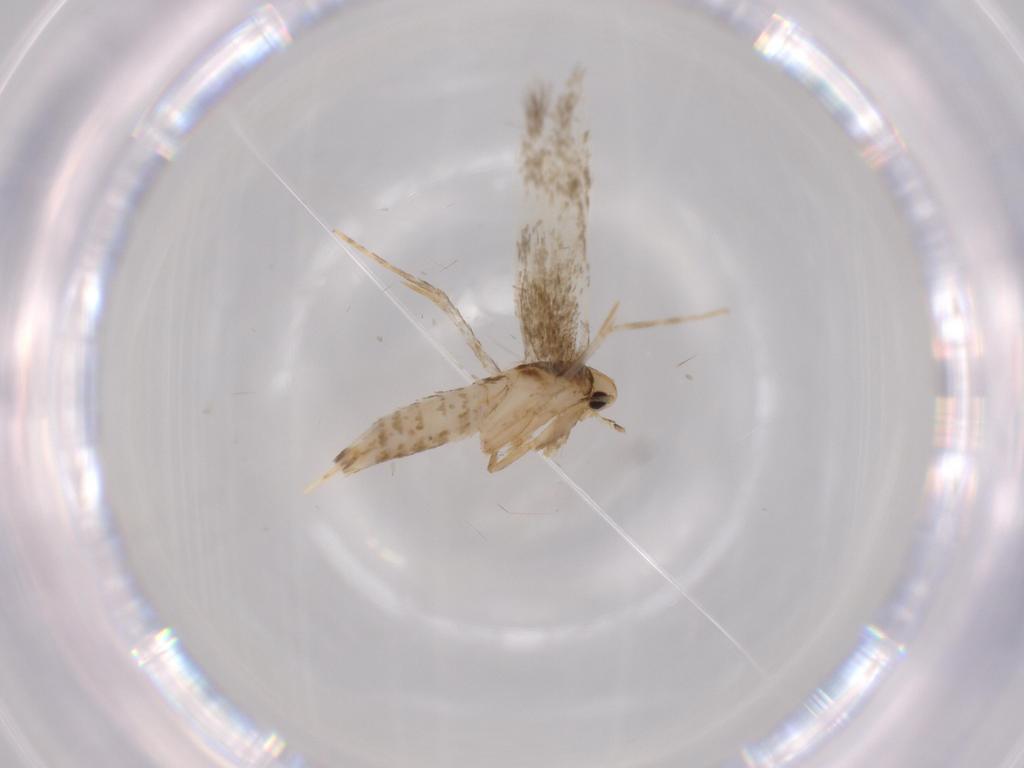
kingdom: Animalia
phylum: Arthropoda
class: Insecta
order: Lepidoptera
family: Tineidae
